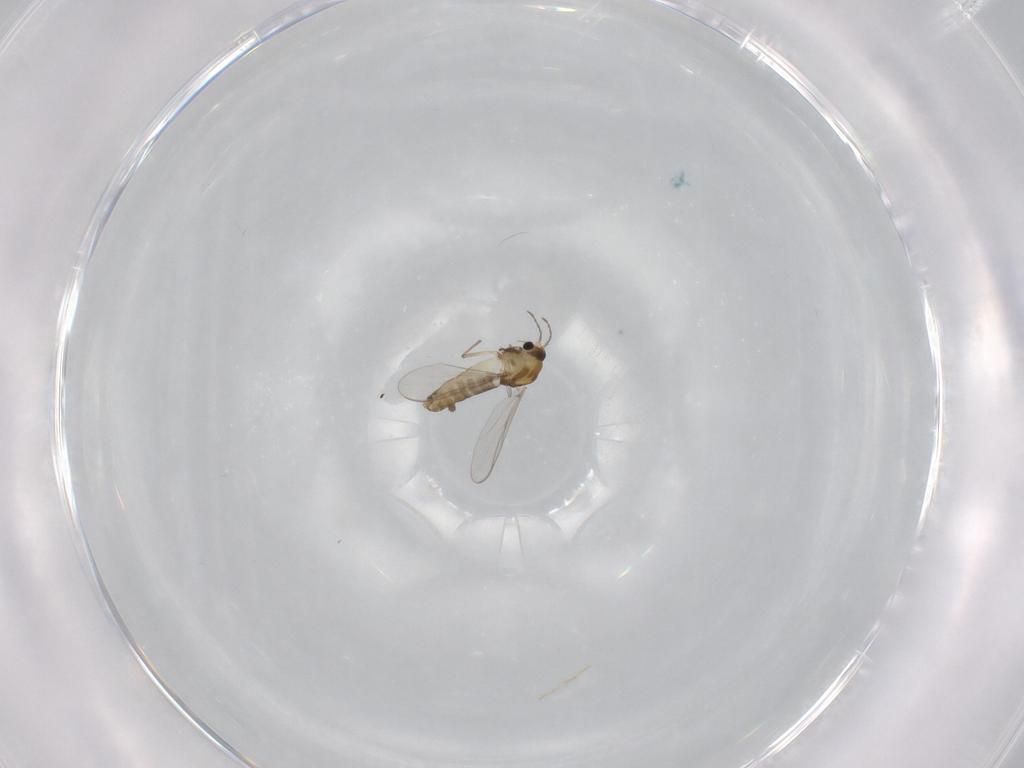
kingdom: Animalia
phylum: Arthropoda
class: Insecta
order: Diptera
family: Chironomidae
